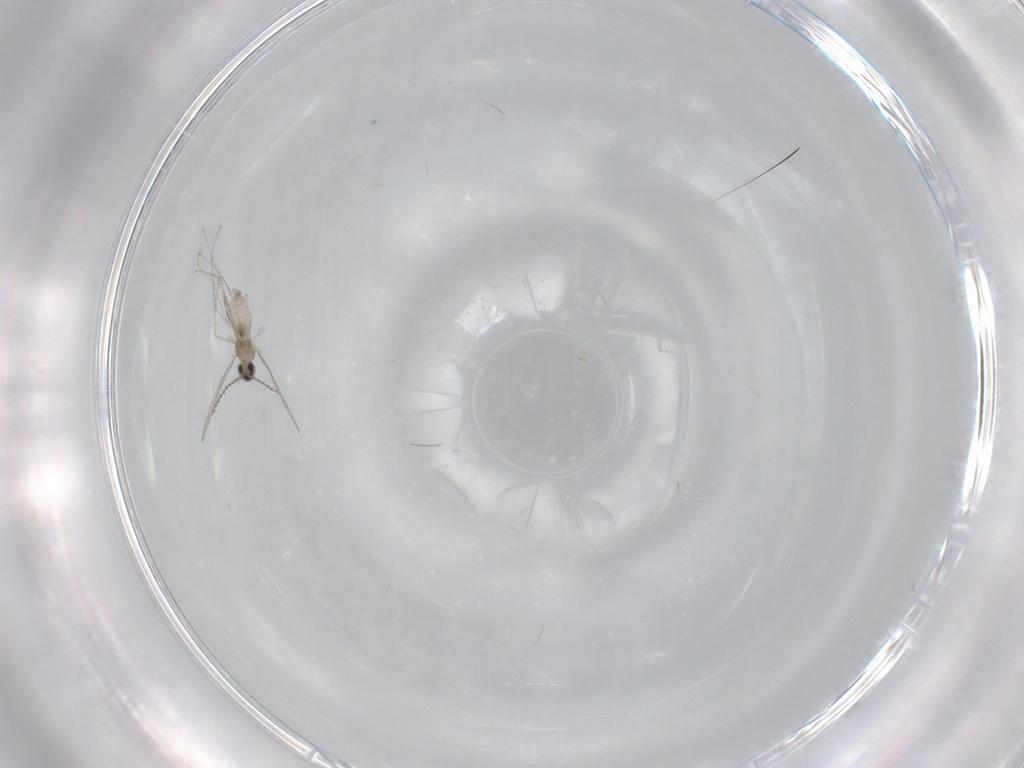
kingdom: Animalia
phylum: Arthropoda
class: Insecta
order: Diptera
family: Cecidomyiidae
